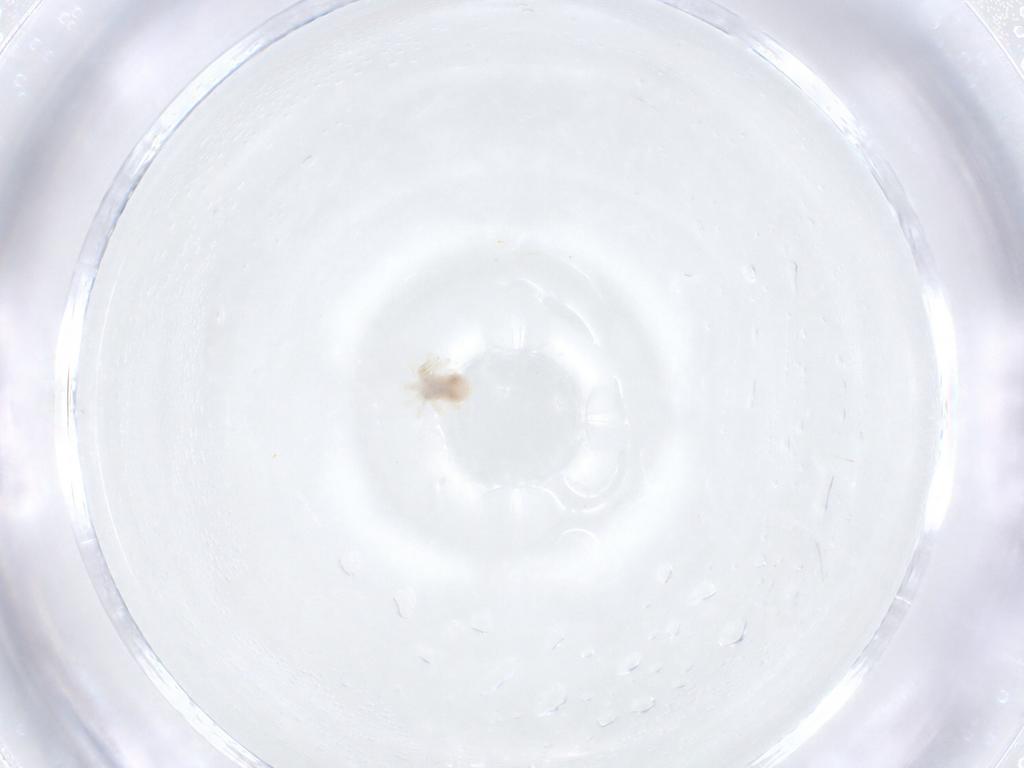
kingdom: Animalia
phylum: Arthropoda
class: Arachnida
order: Trombidiformes
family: Anystidae
